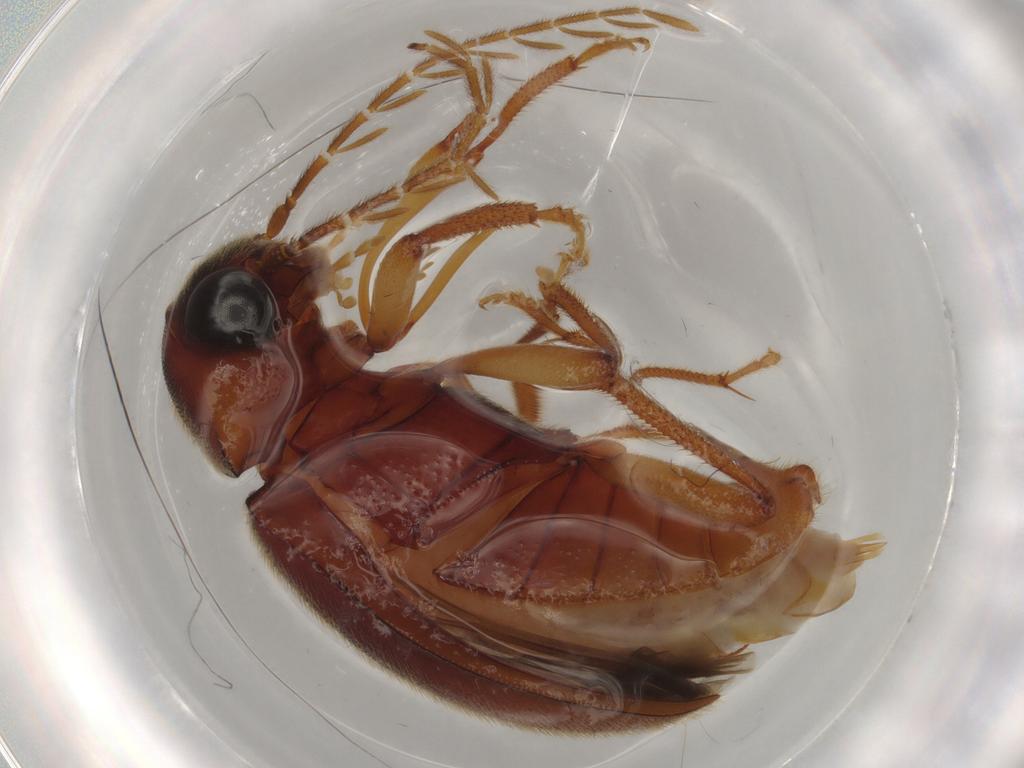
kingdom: Animalia
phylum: Arthropoda
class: Insecta
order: Coleoptera
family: Ptilodactylidae
